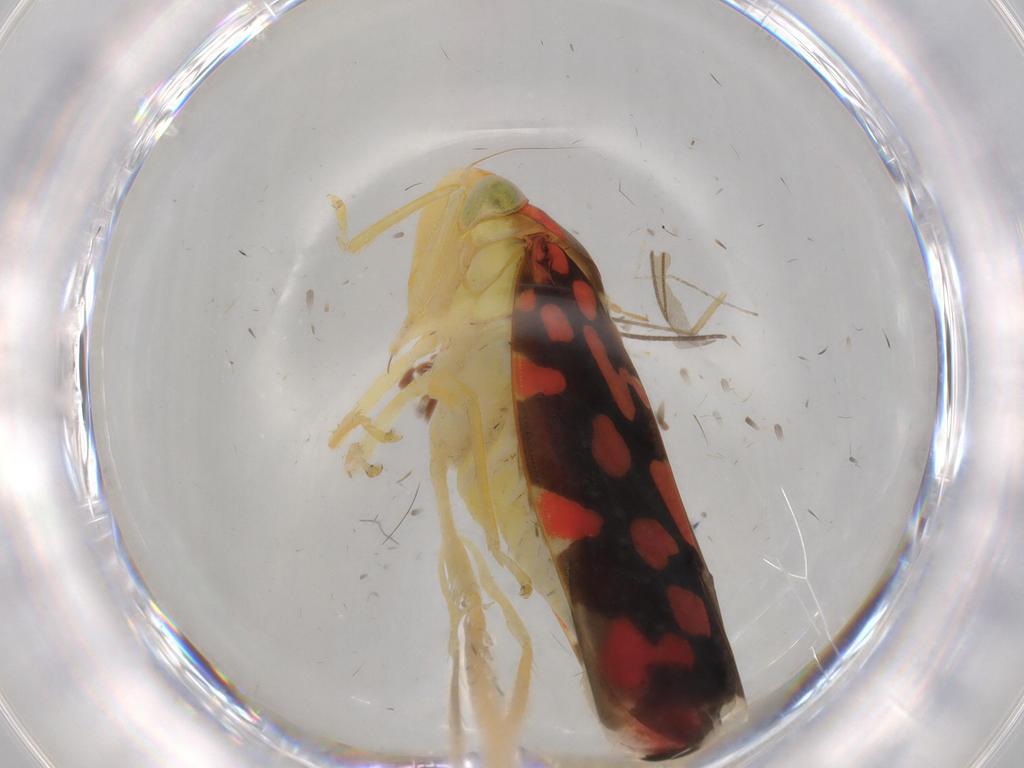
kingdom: Animalia
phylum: Arthropoda
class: Insecta
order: Hemiptera
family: Cicadellidae
